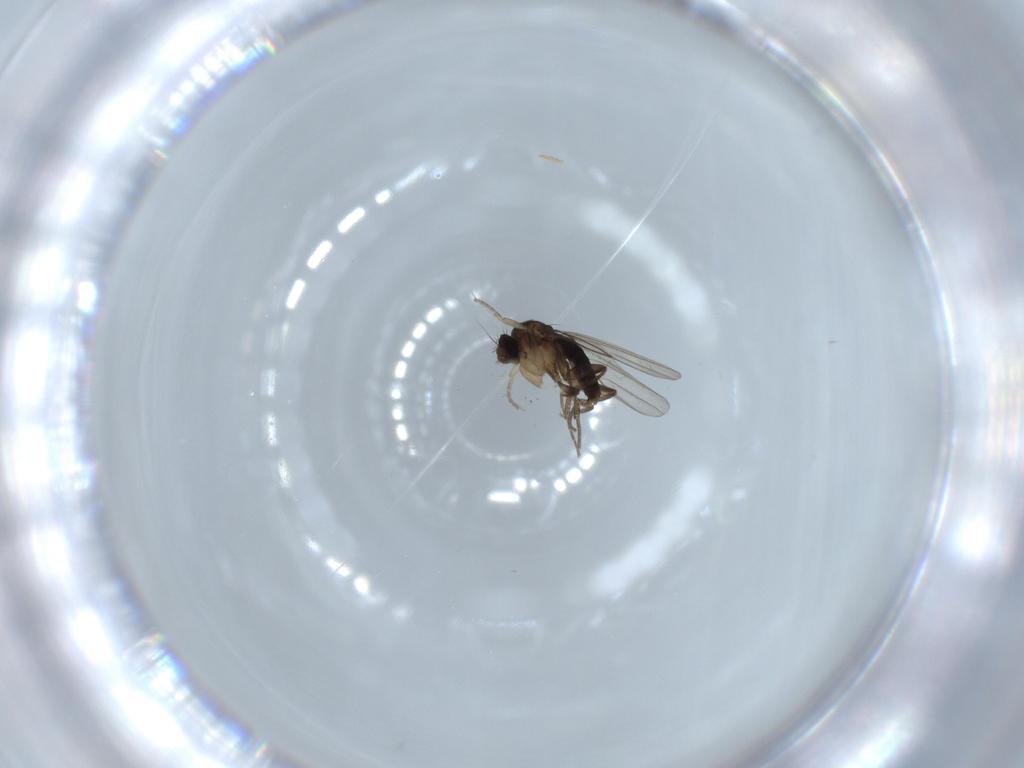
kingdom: Animalia
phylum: Arthropoda
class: Insecta
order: Diptera
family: Phoridae
